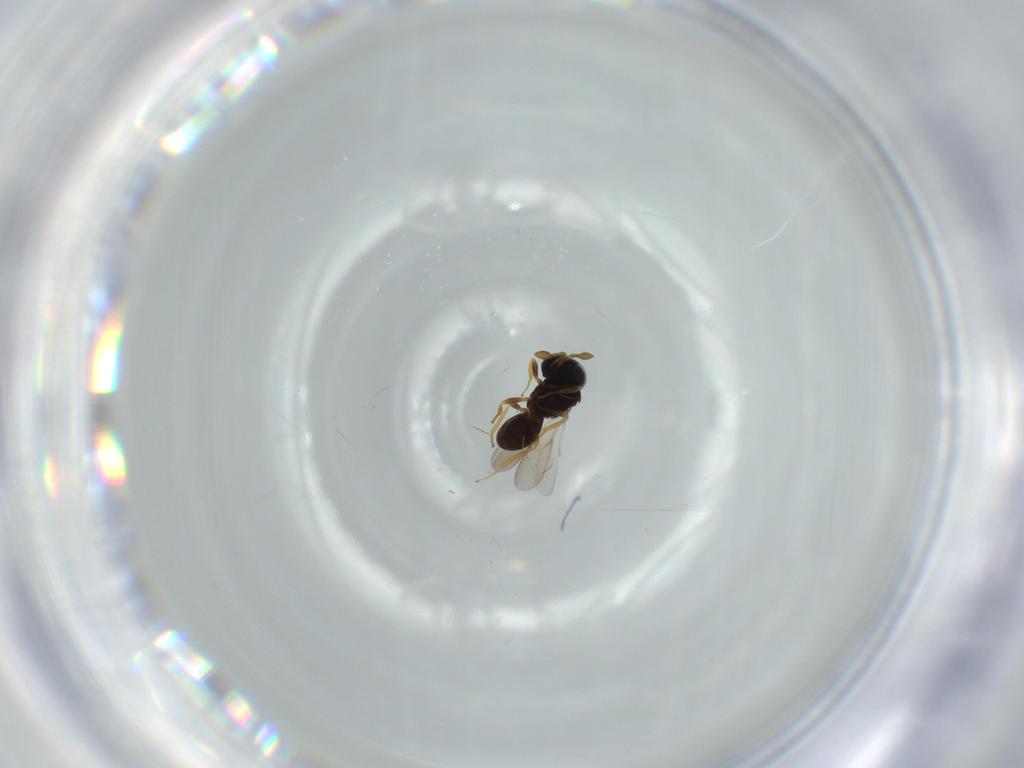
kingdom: Animalia
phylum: Arthropoda
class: Insecta
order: Hymenoptera
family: Scelionidae
